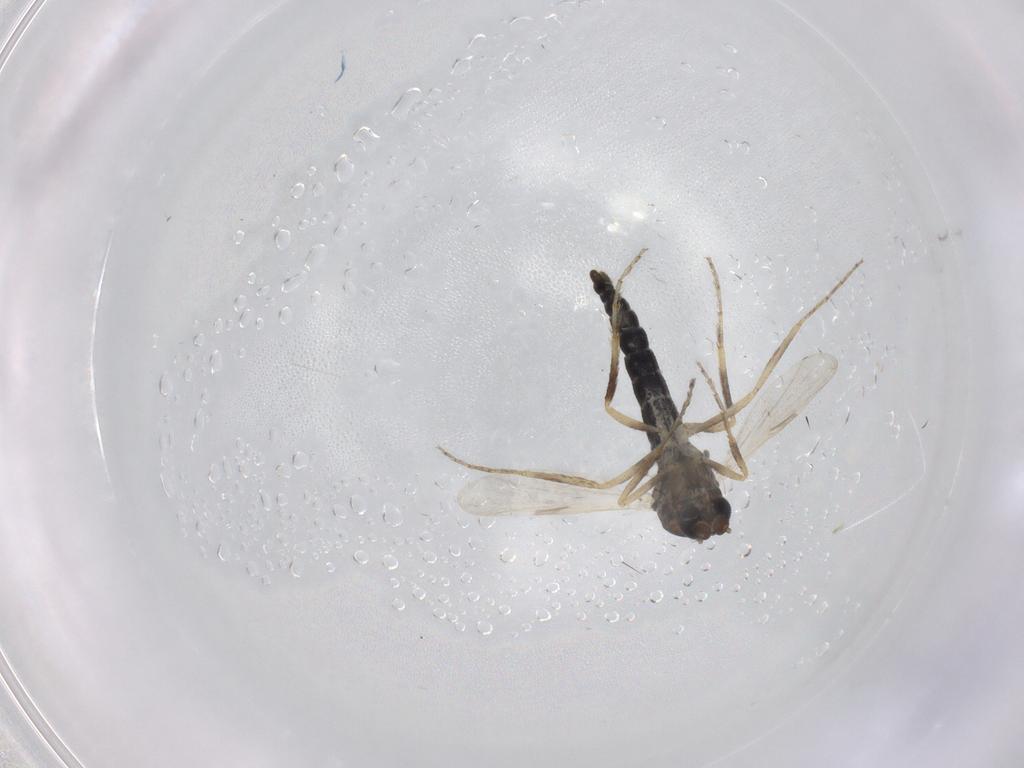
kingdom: Animalia
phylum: Arthropoda
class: Insecta
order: Diptera
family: Ceratopogonidae
